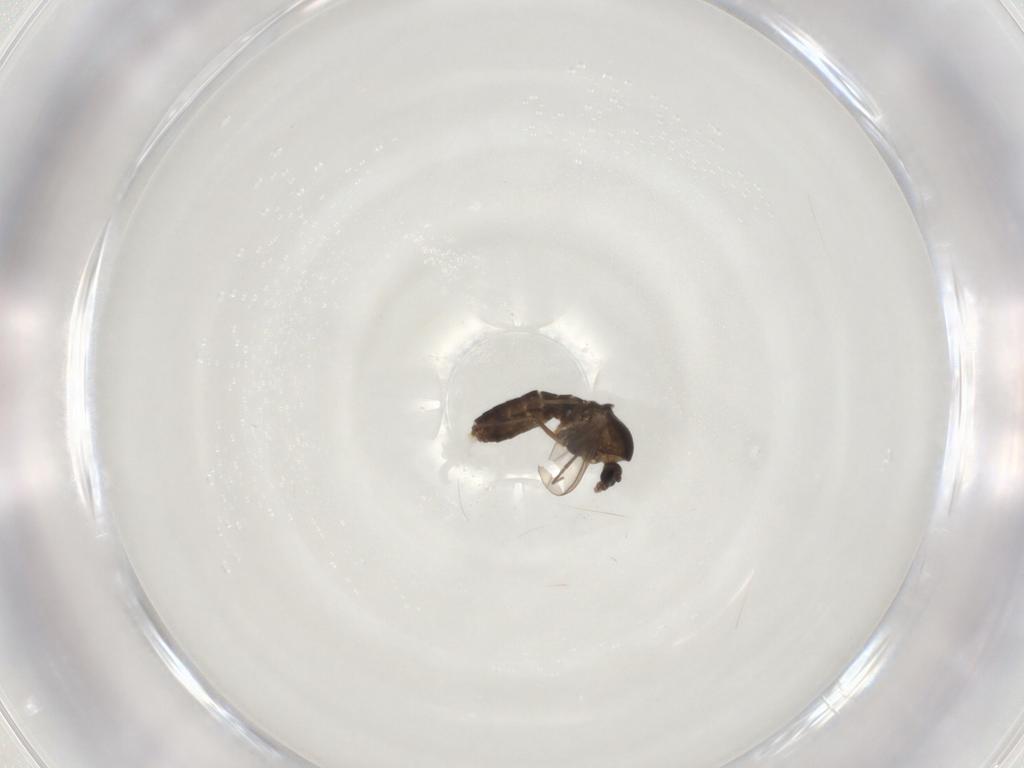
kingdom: Animalia
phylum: Arthropoda
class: Insecta
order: Diptera
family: Chironomidae
